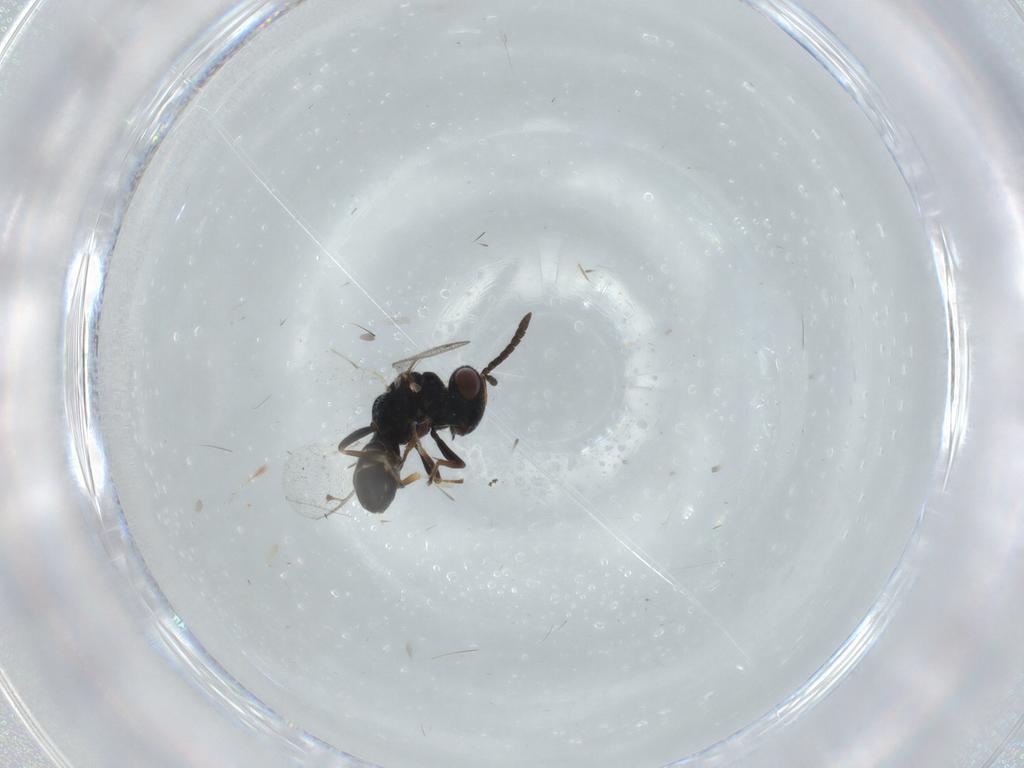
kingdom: Animalia
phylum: Arthropoda
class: Insecta
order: Hymenoptera
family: Pteromalidae
